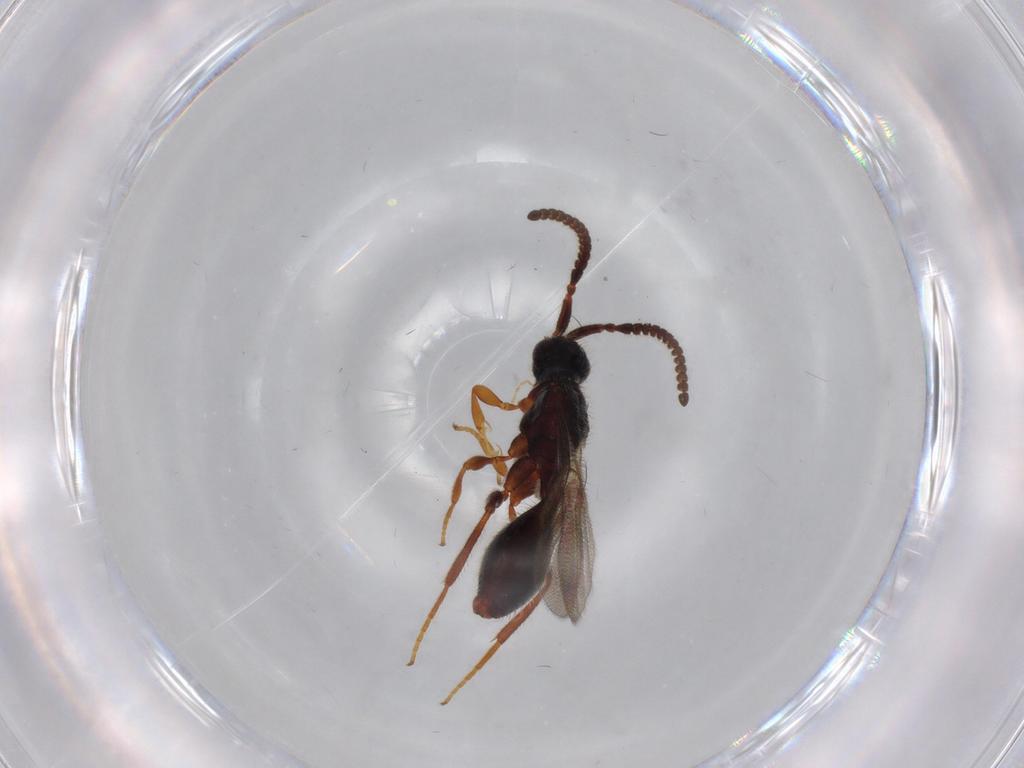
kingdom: Animalia
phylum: Arthropoda
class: Insecta
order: Hymenoptera
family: Diapriidae
